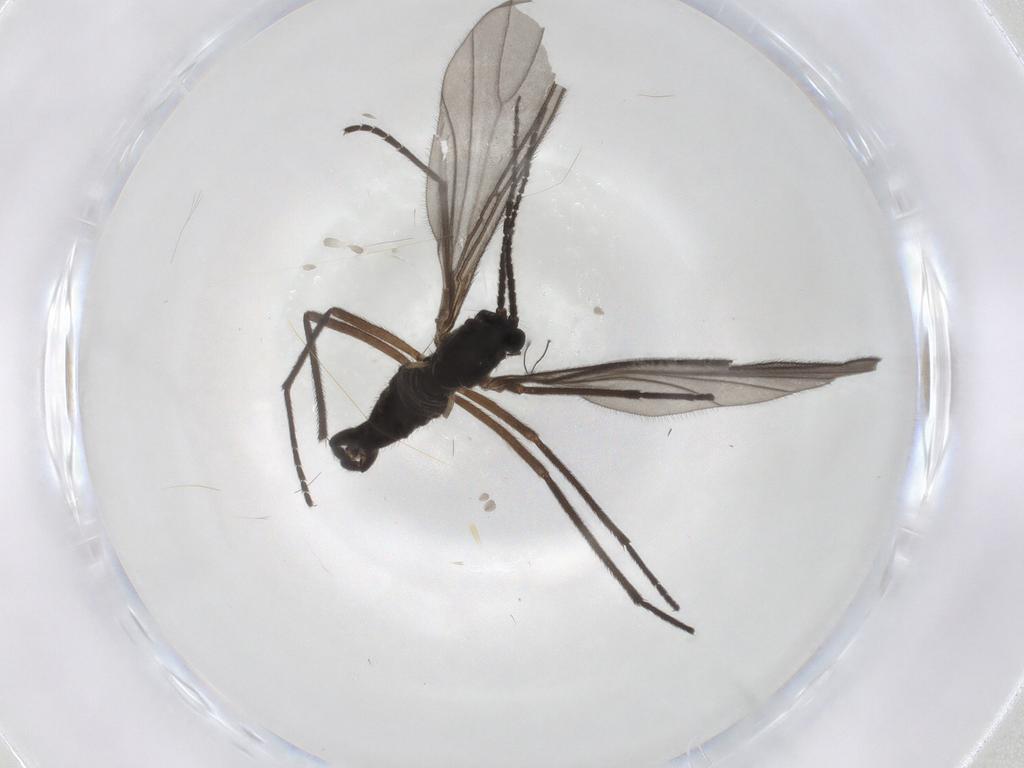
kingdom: Animalia
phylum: Arthropoda
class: Insecta
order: Diptera
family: Sciaridae
